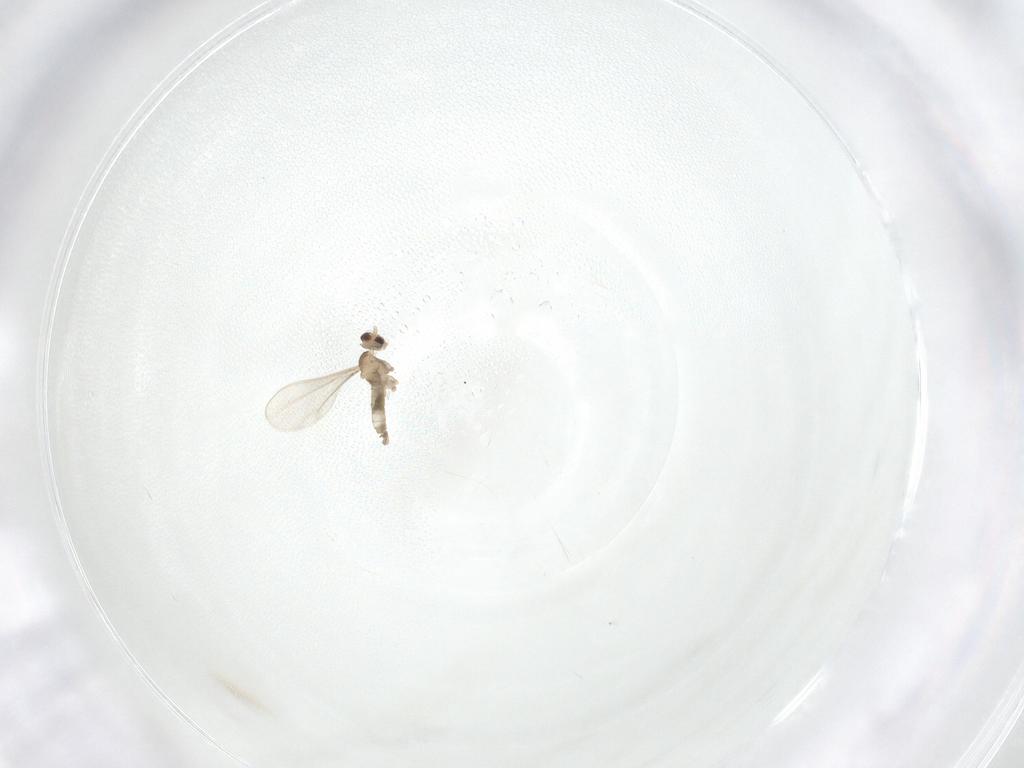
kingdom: Animalia
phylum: Arthropoda
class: Insecta
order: Diptera
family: Cecidomyiidae
